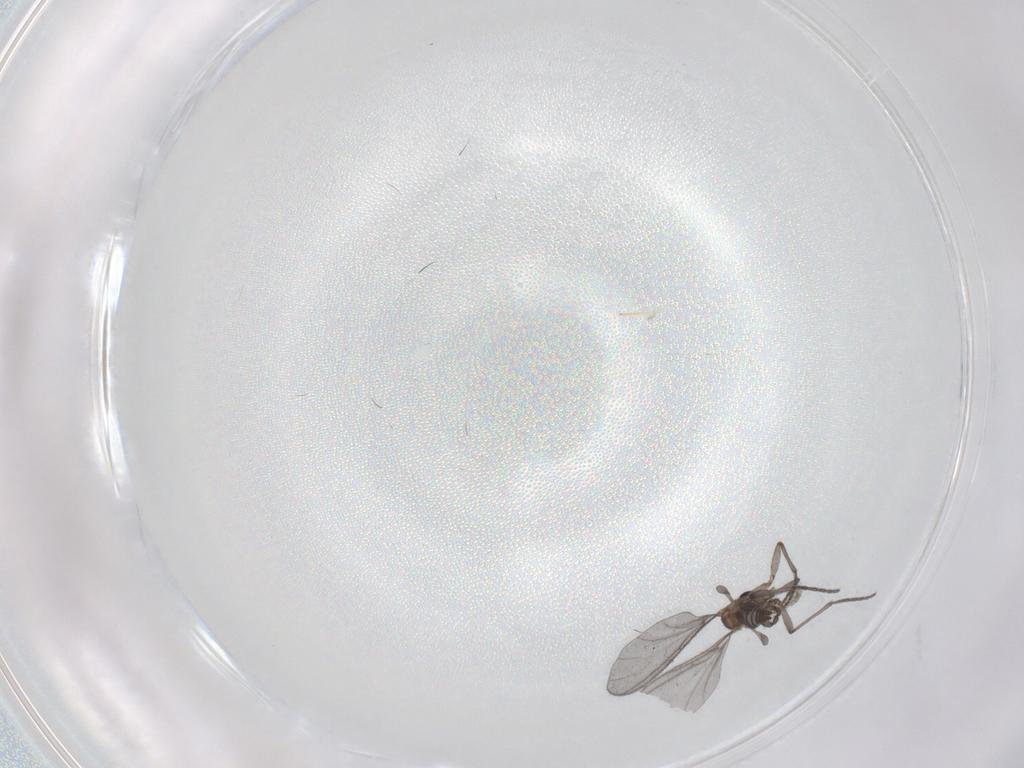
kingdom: Animalia
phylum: Arthropoda
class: Insecta
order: Diptera
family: Sciaridae
